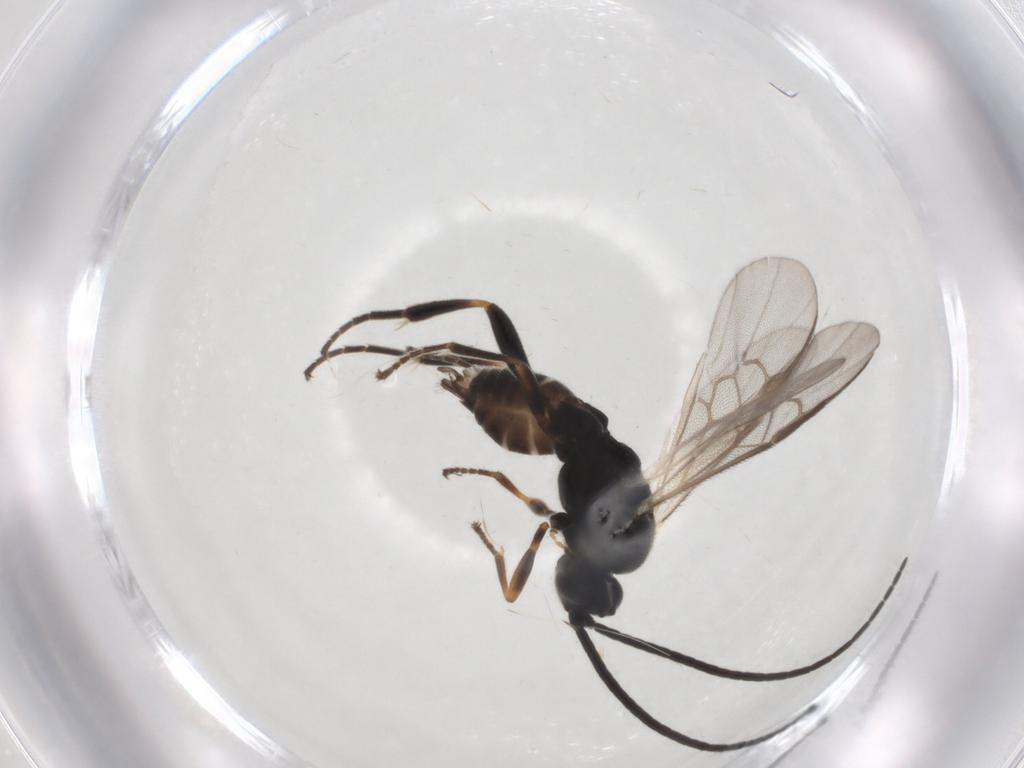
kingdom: Animalia
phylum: Arthropoda
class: Insecta
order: Hymenoptera
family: Braconidae
